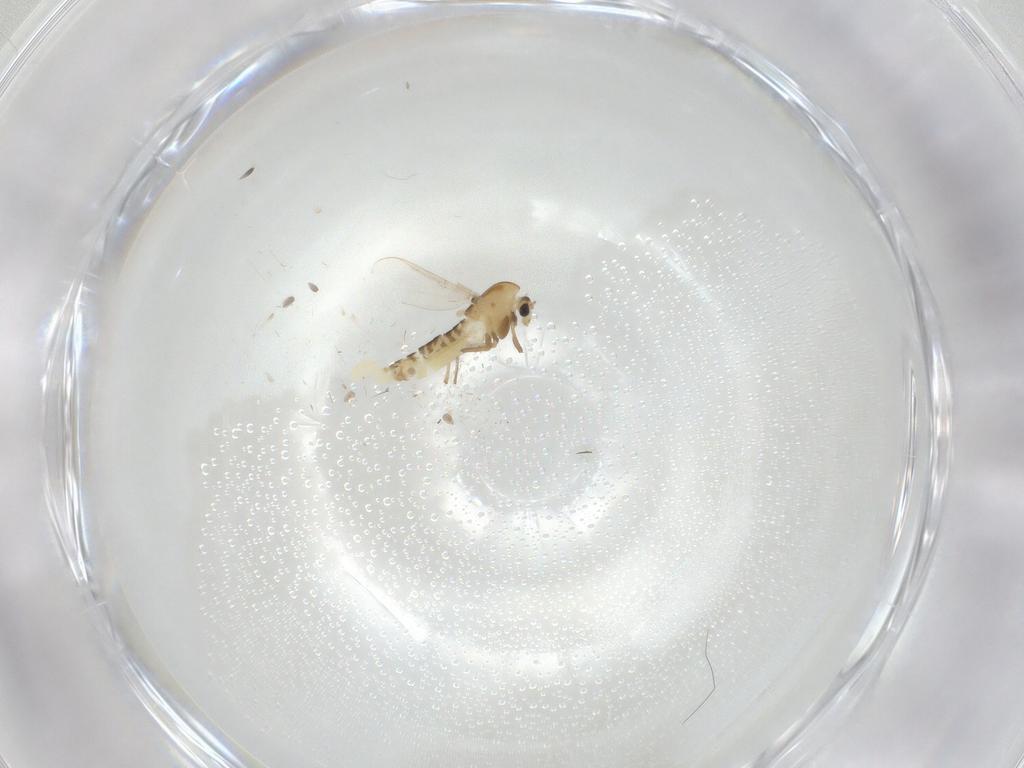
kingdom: Animalia
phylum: Arthropoda
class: Insecta
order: Diptera
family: Chironomidae
